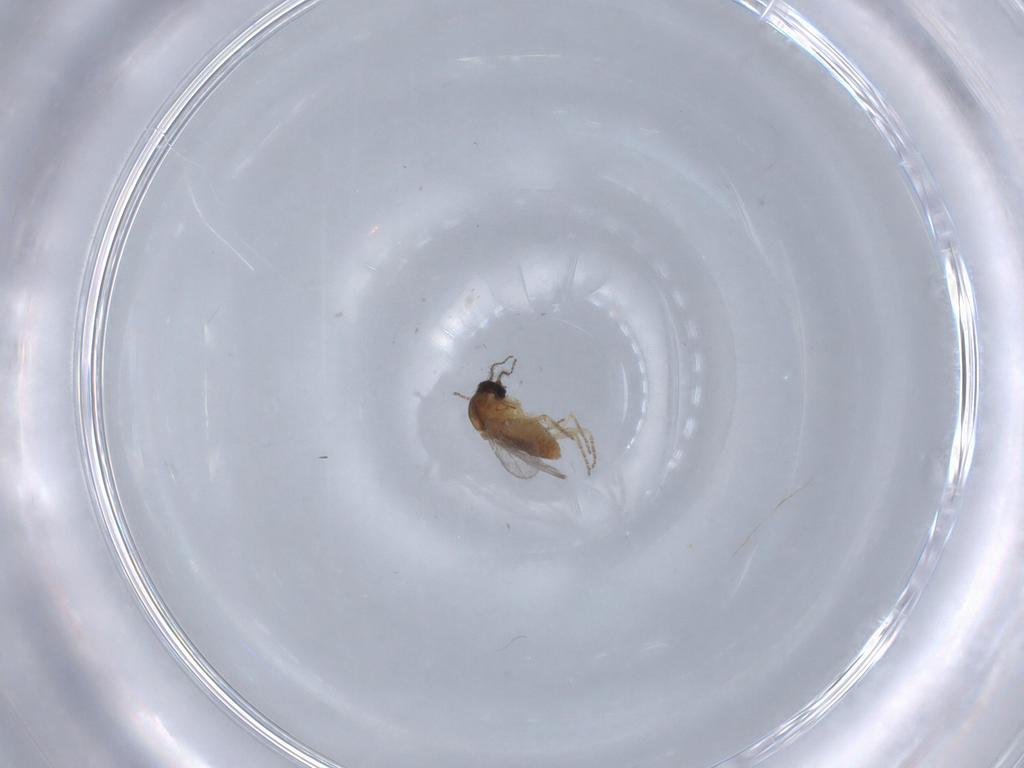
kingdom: Animalia
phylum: Arthropoda
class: Insecta
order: Diptera
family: Ceratopogonidae
